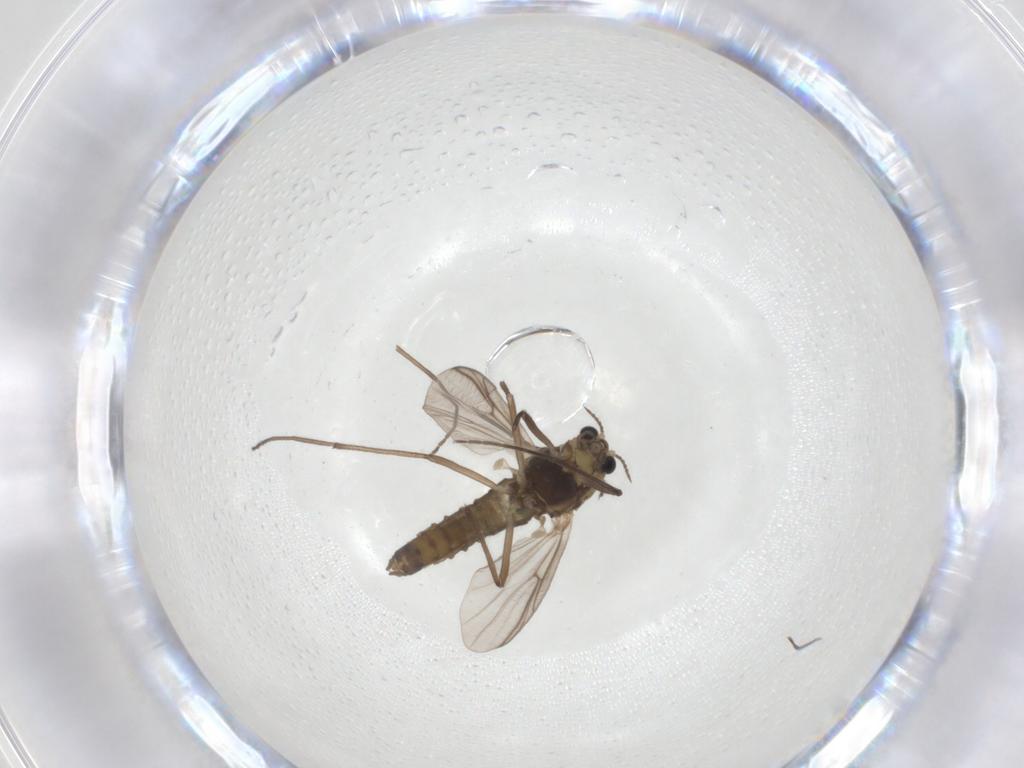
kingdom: Animalia
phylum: Arthropoda
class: Insecta
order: Diptera
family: Chironomidae
